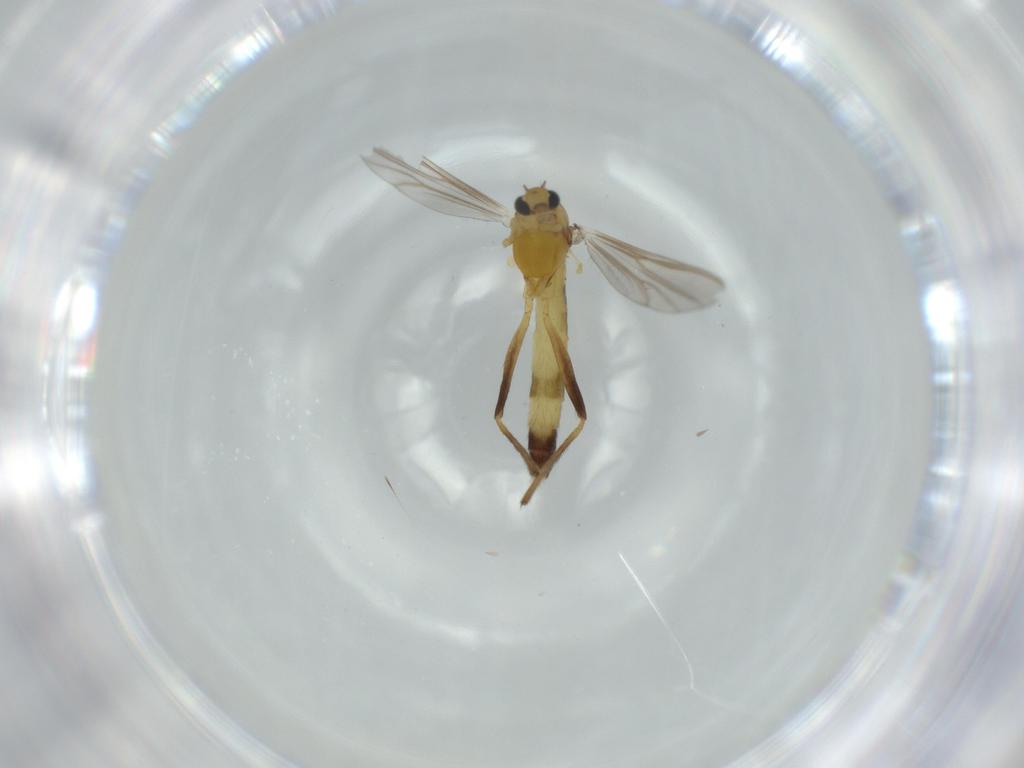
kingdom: Animalia
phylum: Arthropoda
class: Insecta
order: Diptera
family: Chironomidae
